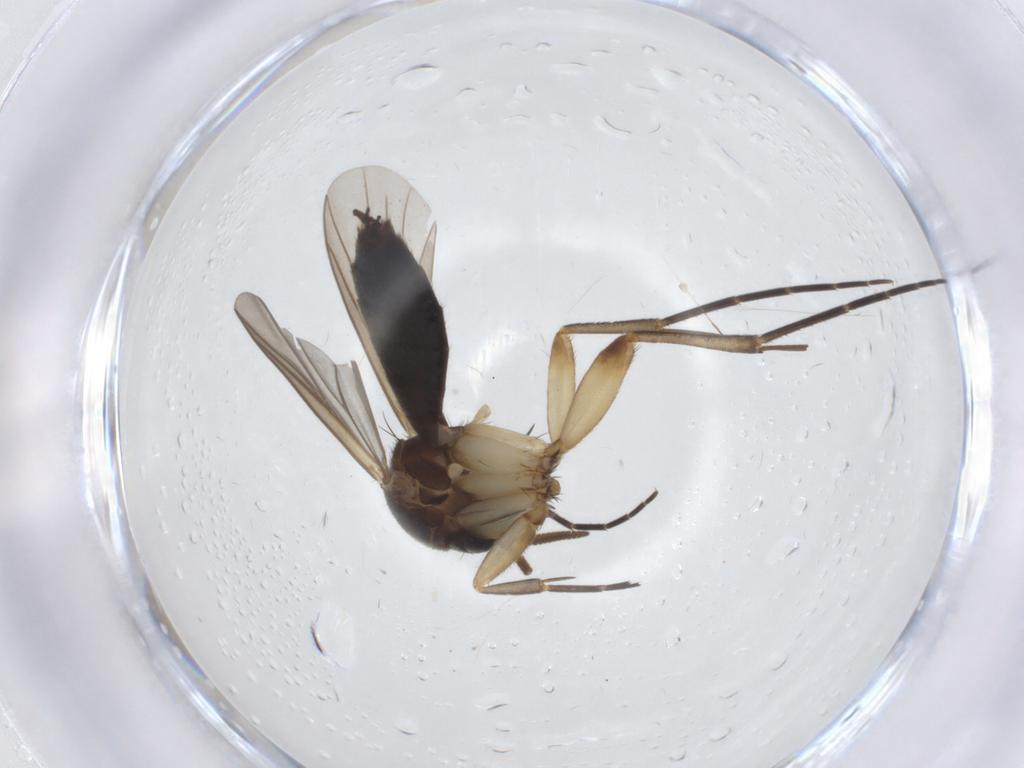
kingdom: Animalia
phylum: Arthropoda
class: Insecta
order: Diptera
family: Mycetophilidae
